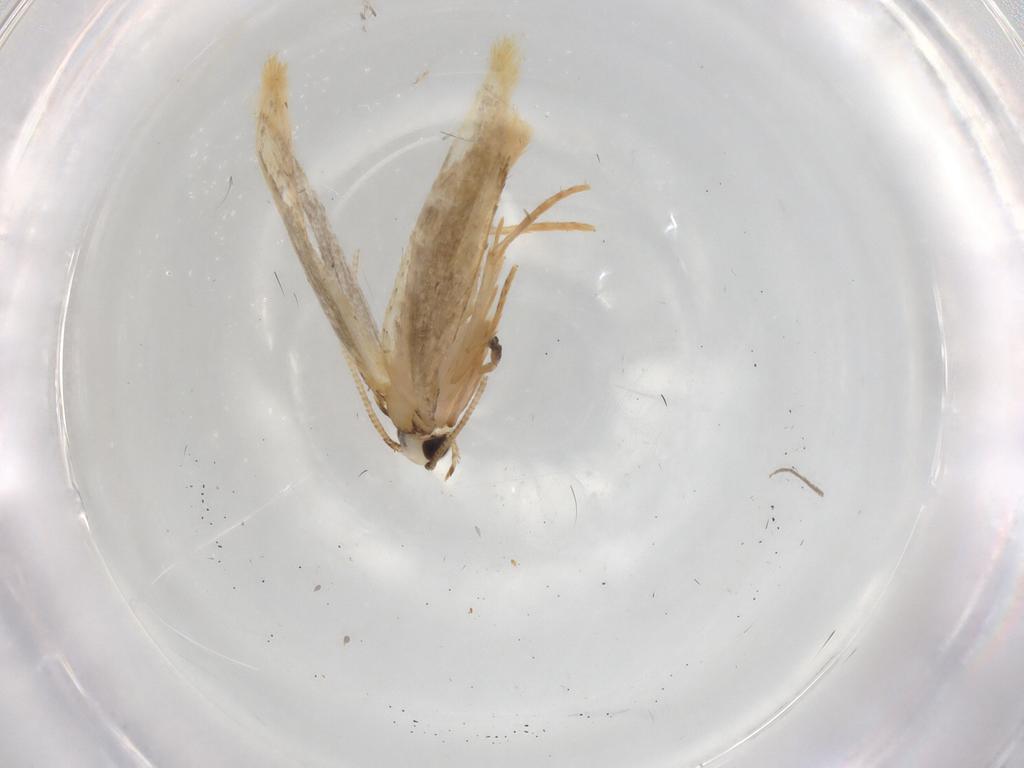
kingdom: Animalia
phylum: Arthropoda
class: Insecta
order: Lepidoptera
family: Tineidae
